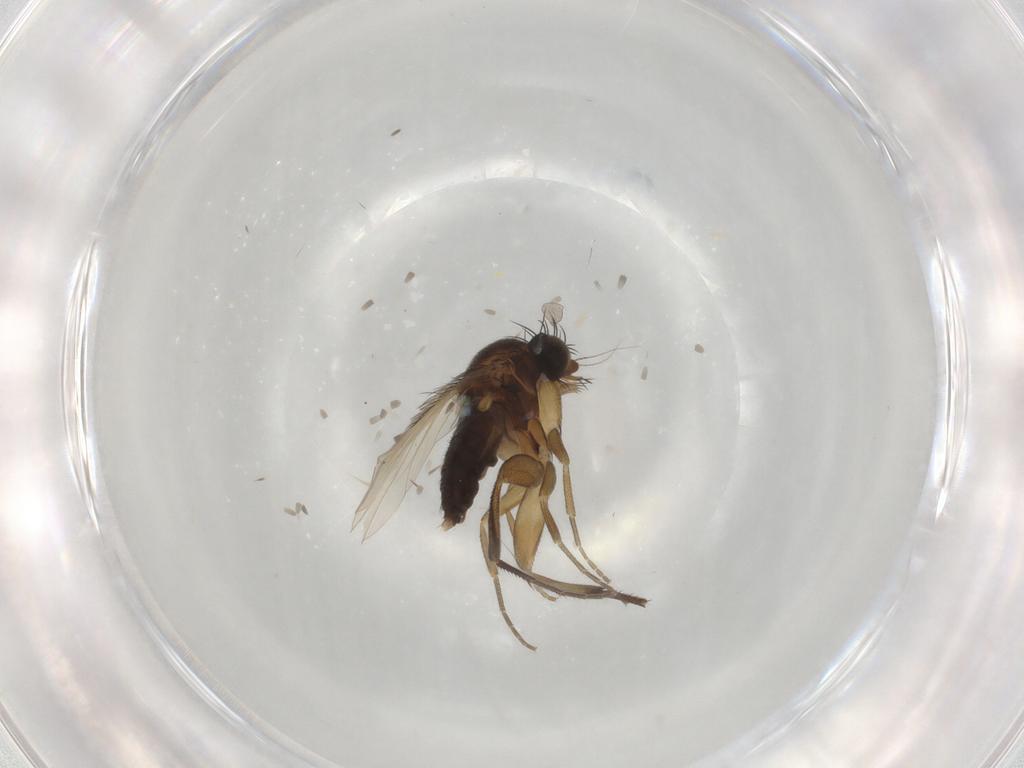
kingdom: Animalia
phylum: Arthropoda
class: Insecta
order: Diptera
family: Phoridae
